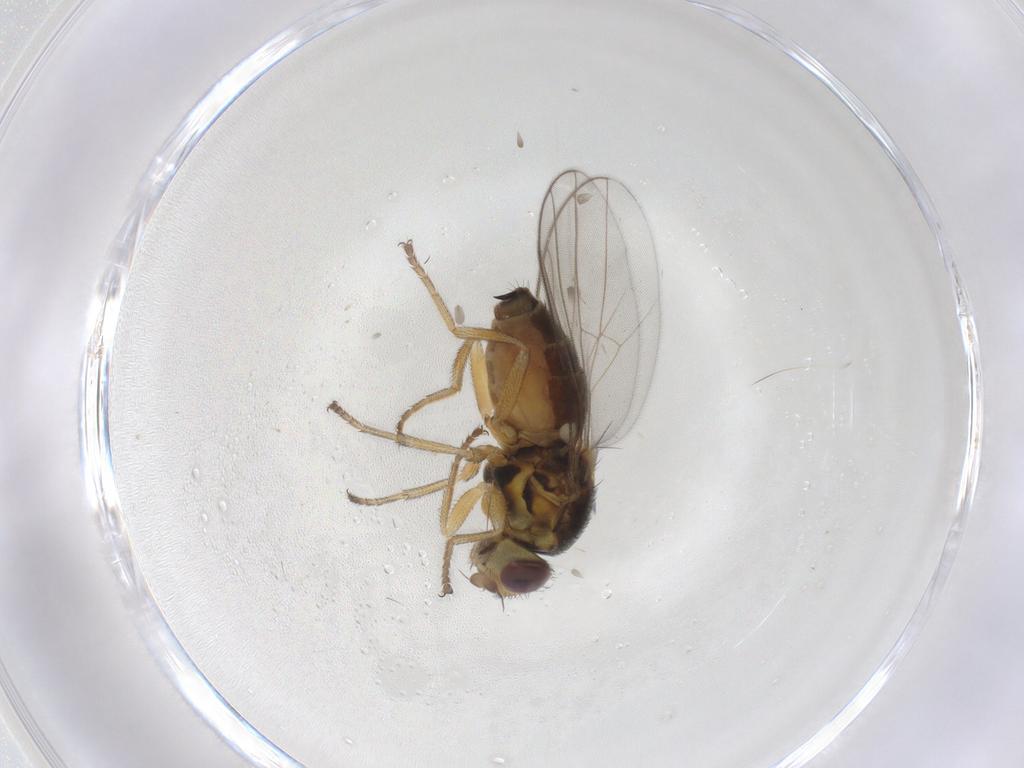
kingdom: Animalia
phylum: Arthropoda
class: Insecta
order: Diptera
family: Chloropidae
